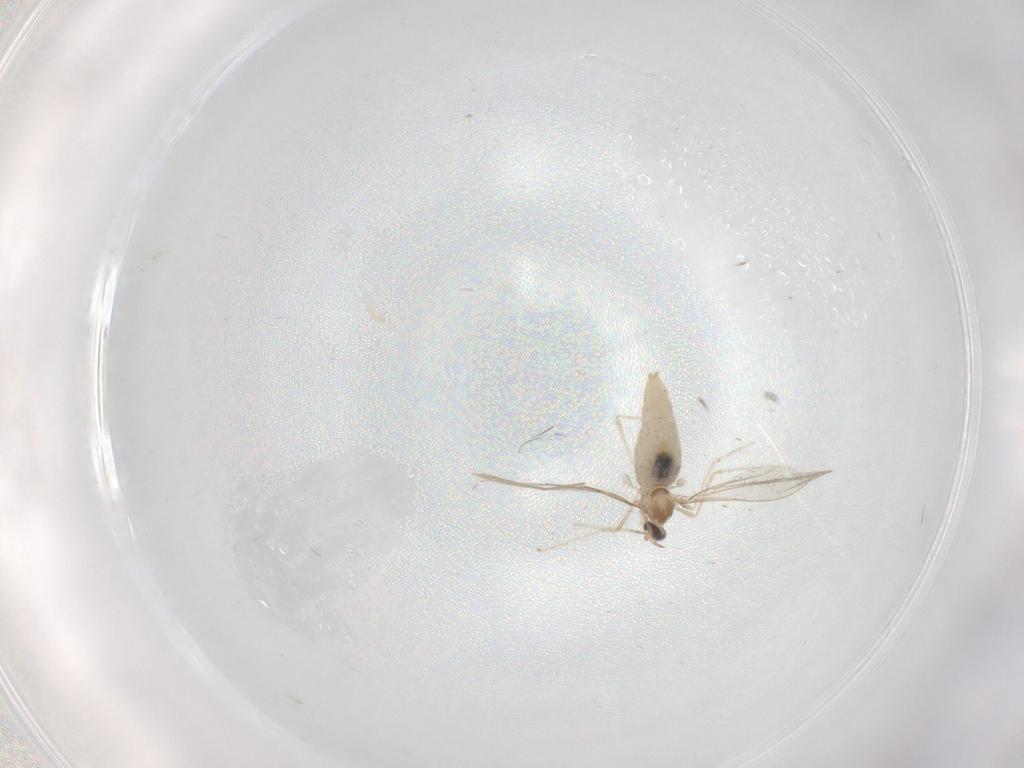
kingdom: Animalia
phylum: Arthropoda
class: Insecta
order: Diptera
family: Cecidomyiidae
